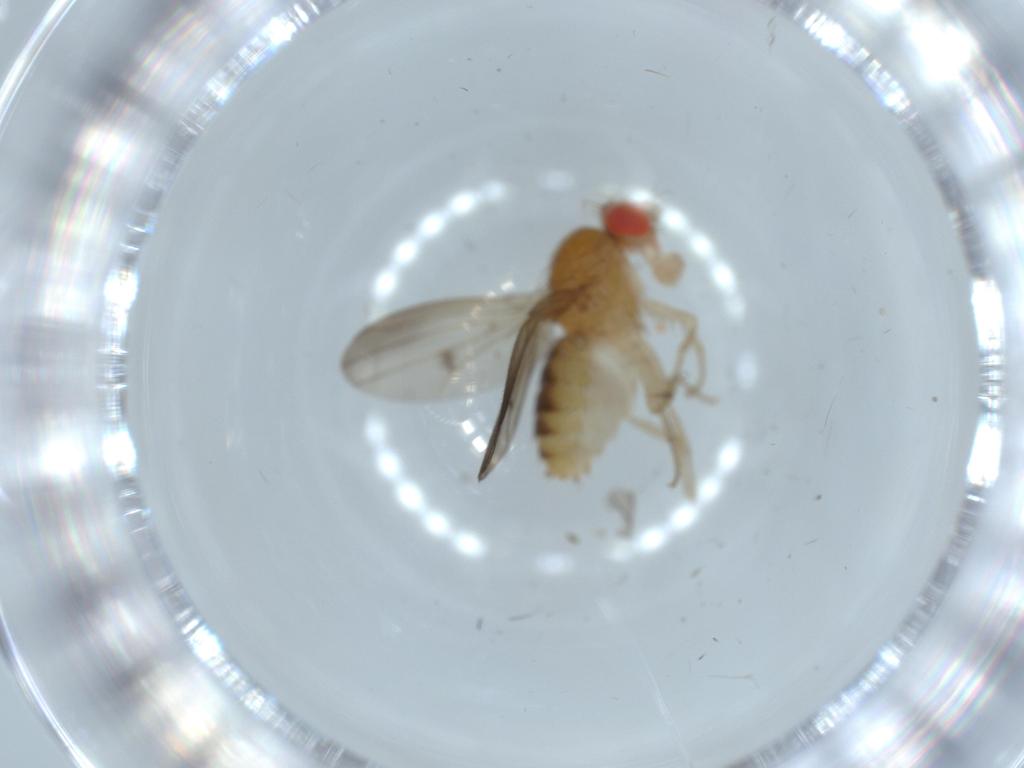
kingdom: Animalia
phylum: Arthropoda
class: Insecta
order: Diptera
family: Drosophilidae
